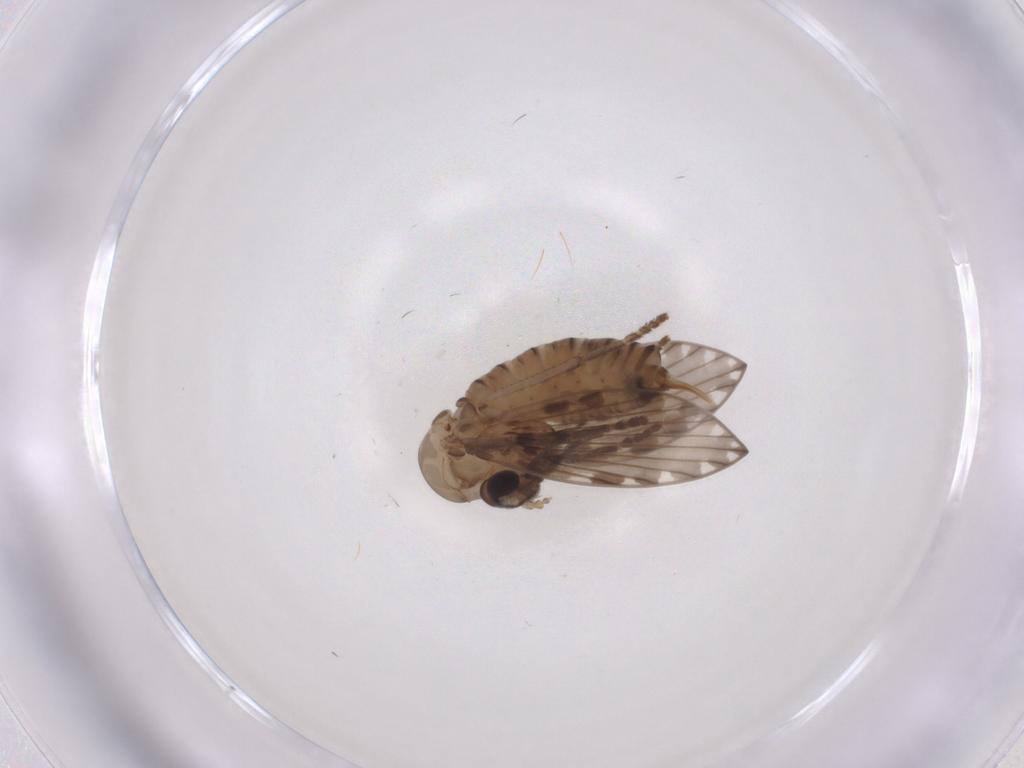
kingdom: Animalia
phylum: Arthropoda
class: Insecta
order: Diptera
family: Psychodidae
